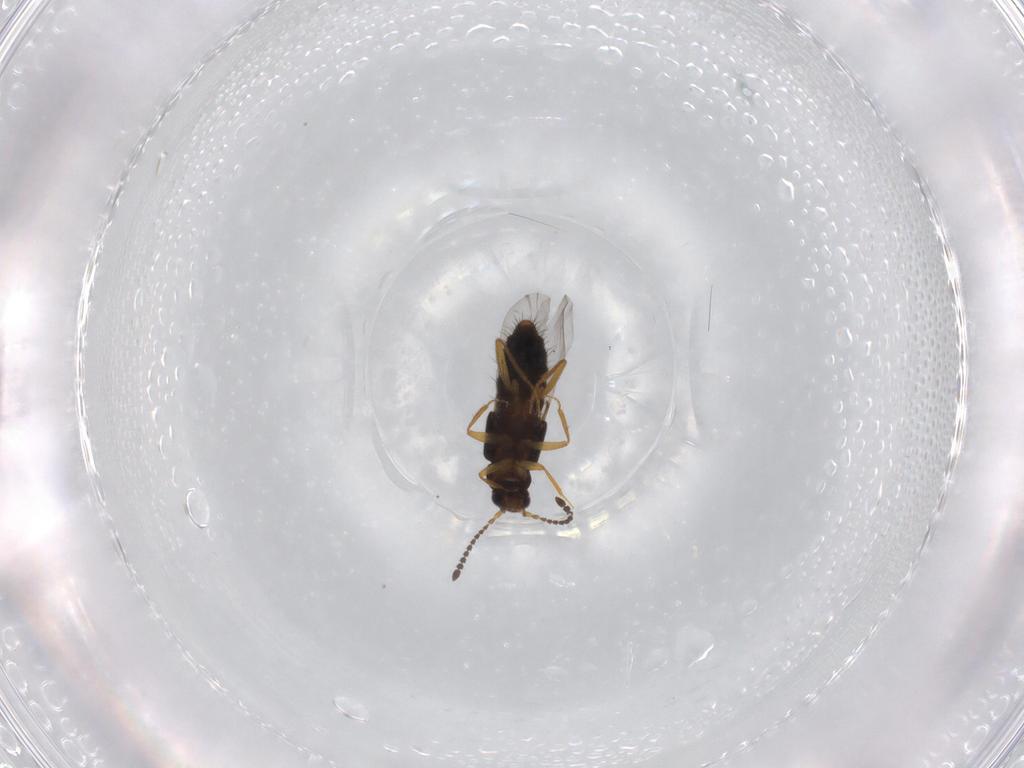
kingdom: Animalia
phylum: Arthropoda
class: Insecta
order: Coleoptera
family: Staphylinidae
